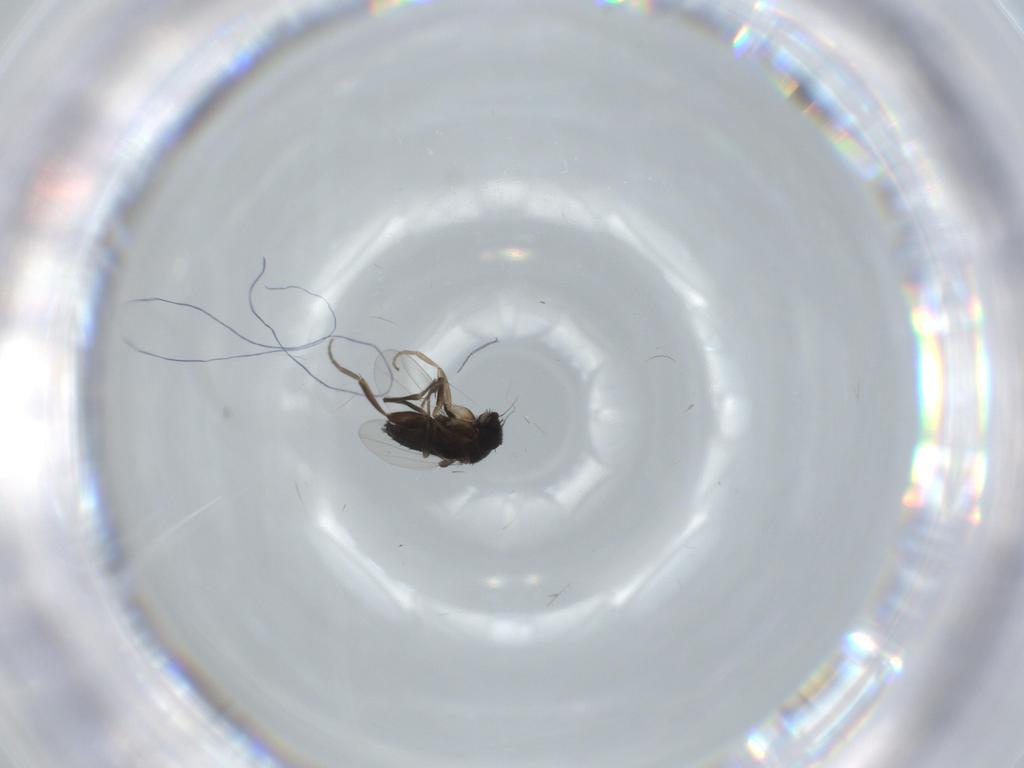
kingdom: Animalia
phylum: Arthropoda
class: Insecta
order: Diptera
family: Phoridae
